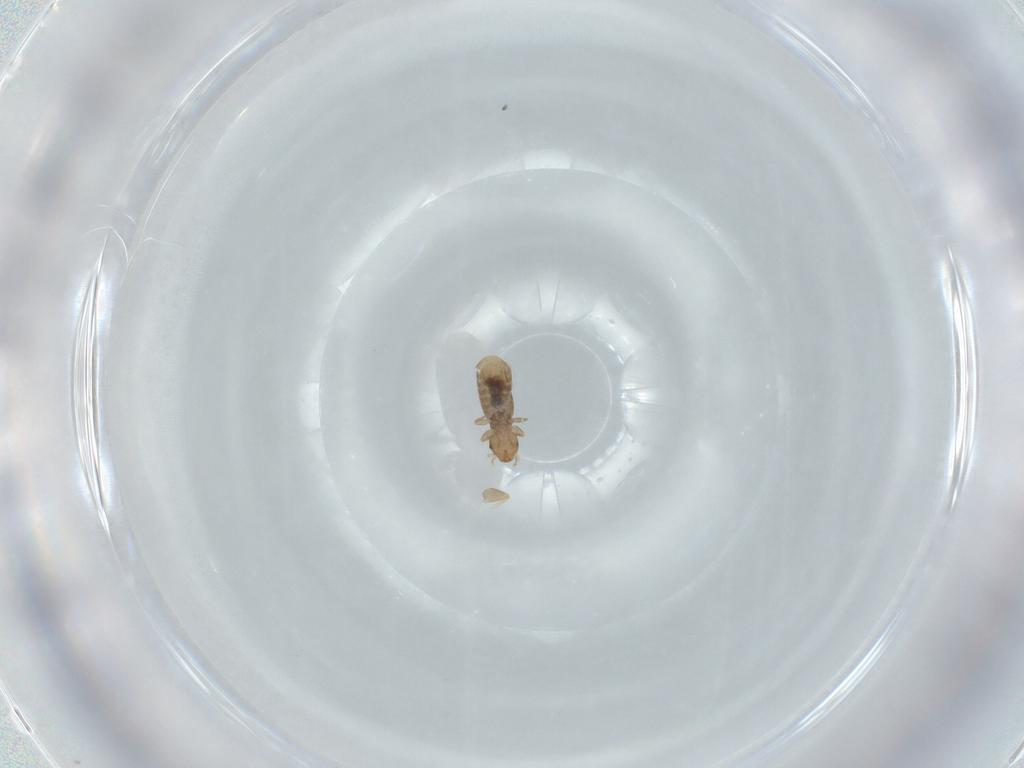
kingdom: Animalia
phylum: Arthropoda
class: Insecta
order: Psocodea
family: Liposcelididae
